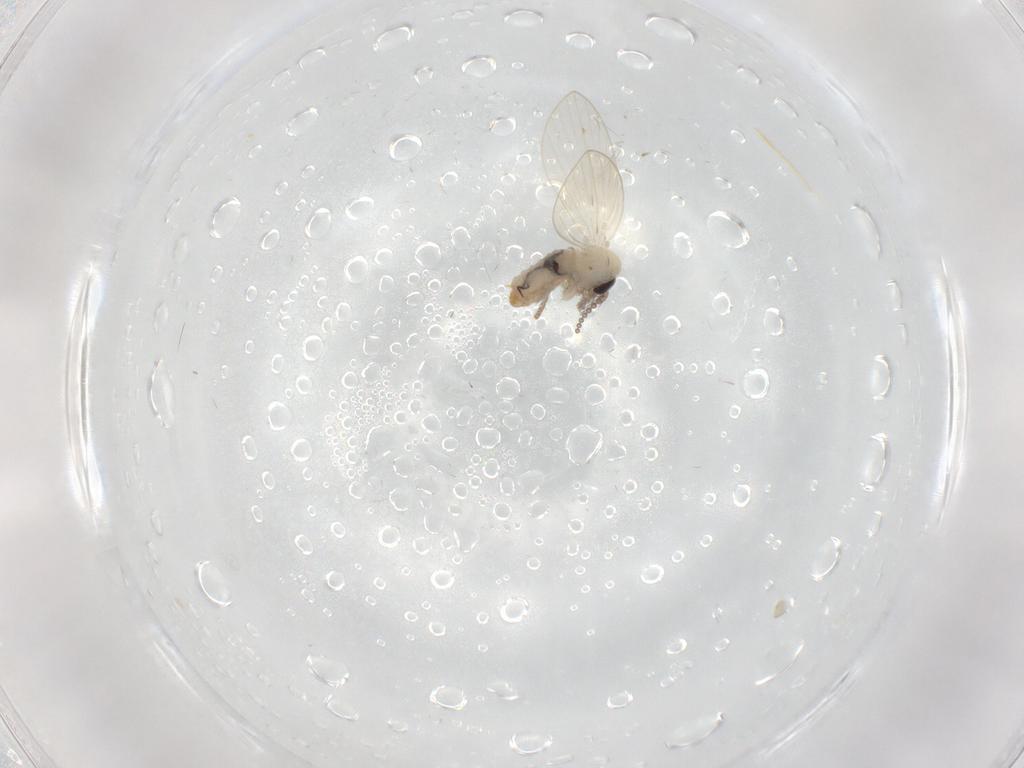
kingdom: Animalia
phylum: Arthropoda
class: Insecta
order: Diptera
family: Psychodidae
